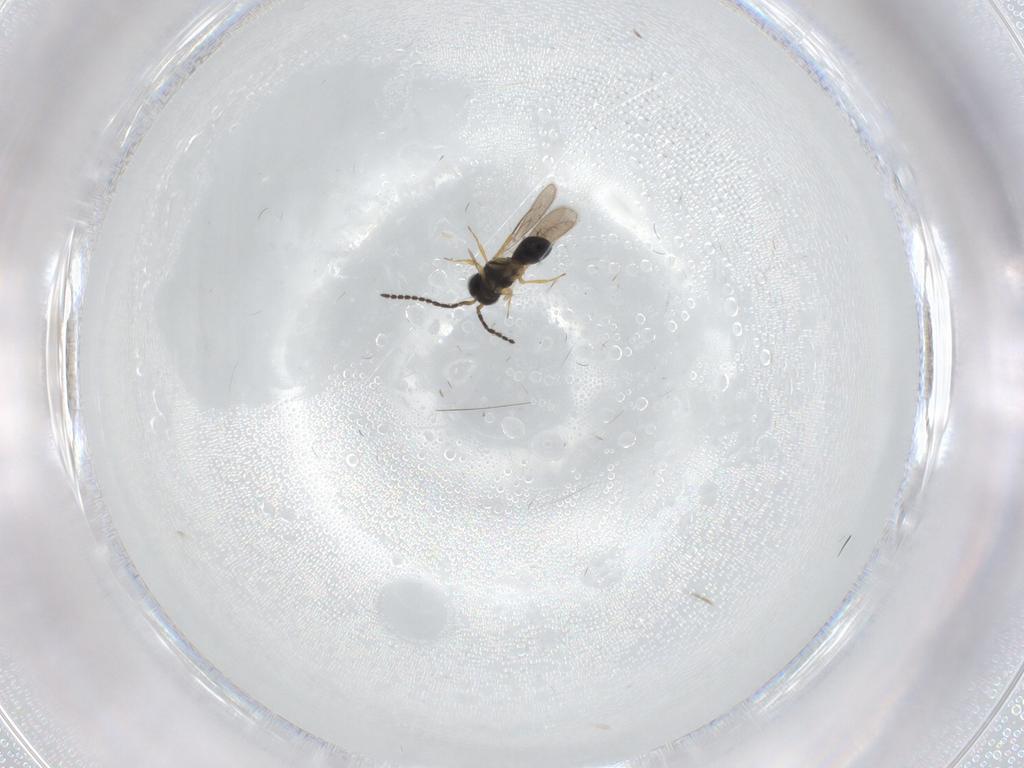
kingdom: Animalia
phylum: Arthropoda
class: Insecta
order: Hymenoptera
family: Scelionidae
